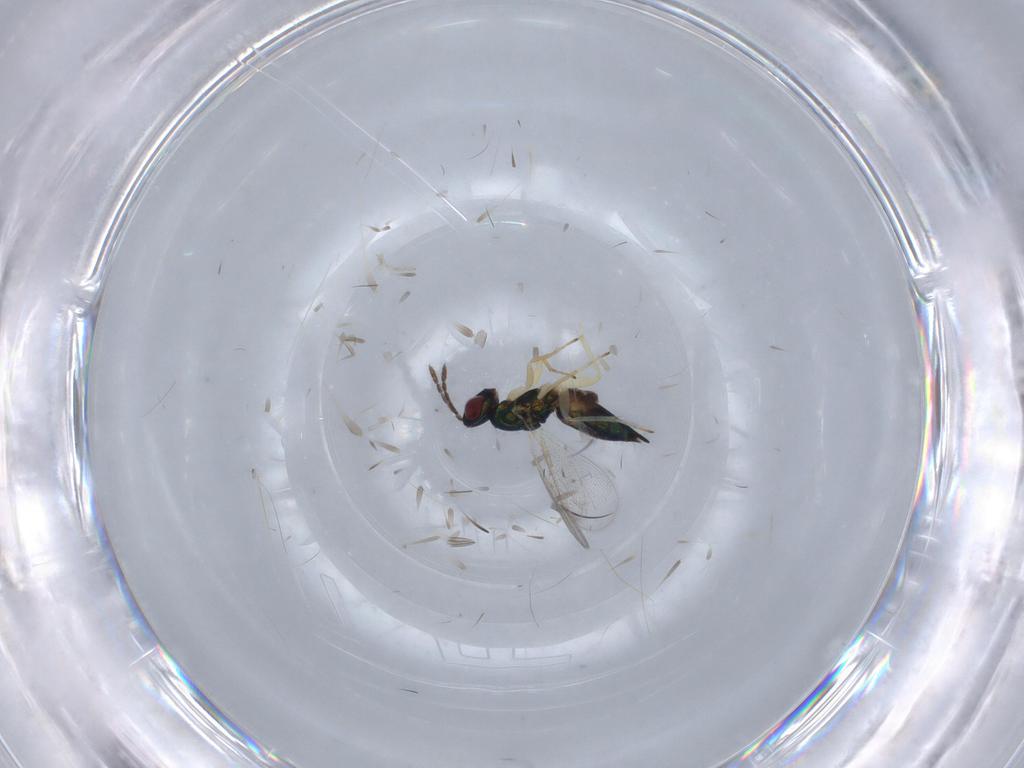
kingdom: Animalia
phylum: Arthropoda
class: Insecta
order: Hymenoptera
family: Eulophidae
